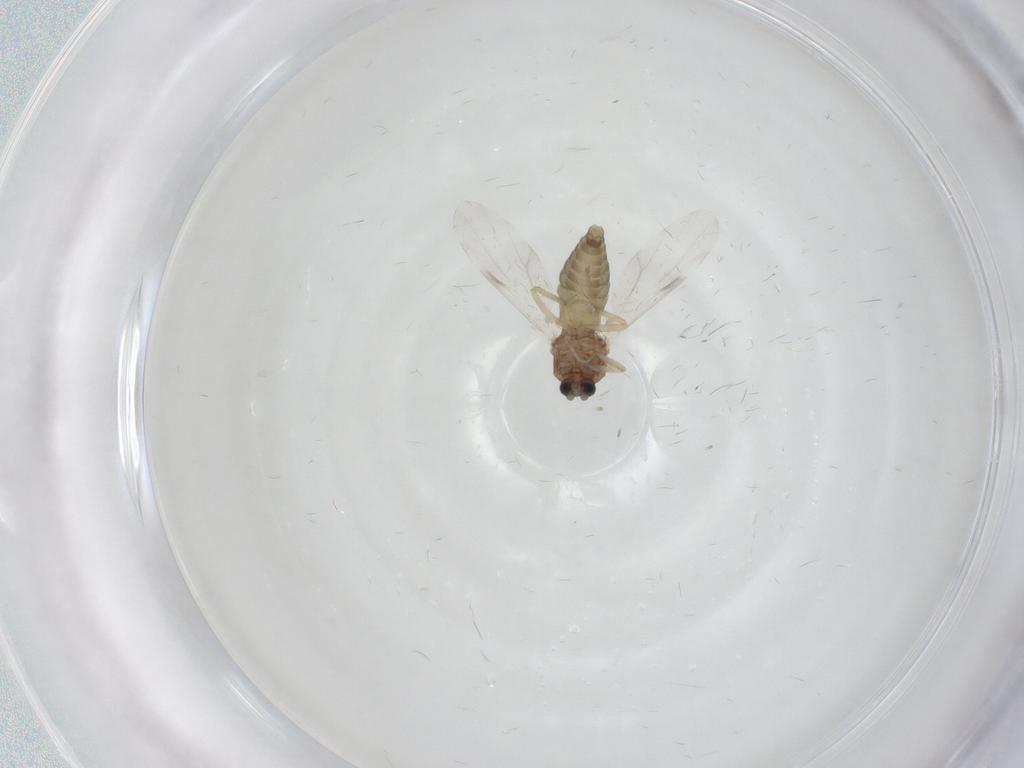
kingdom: Animalia
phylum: Arthropoda
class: Insecta
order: Diptera
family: Ceratopogonidae
